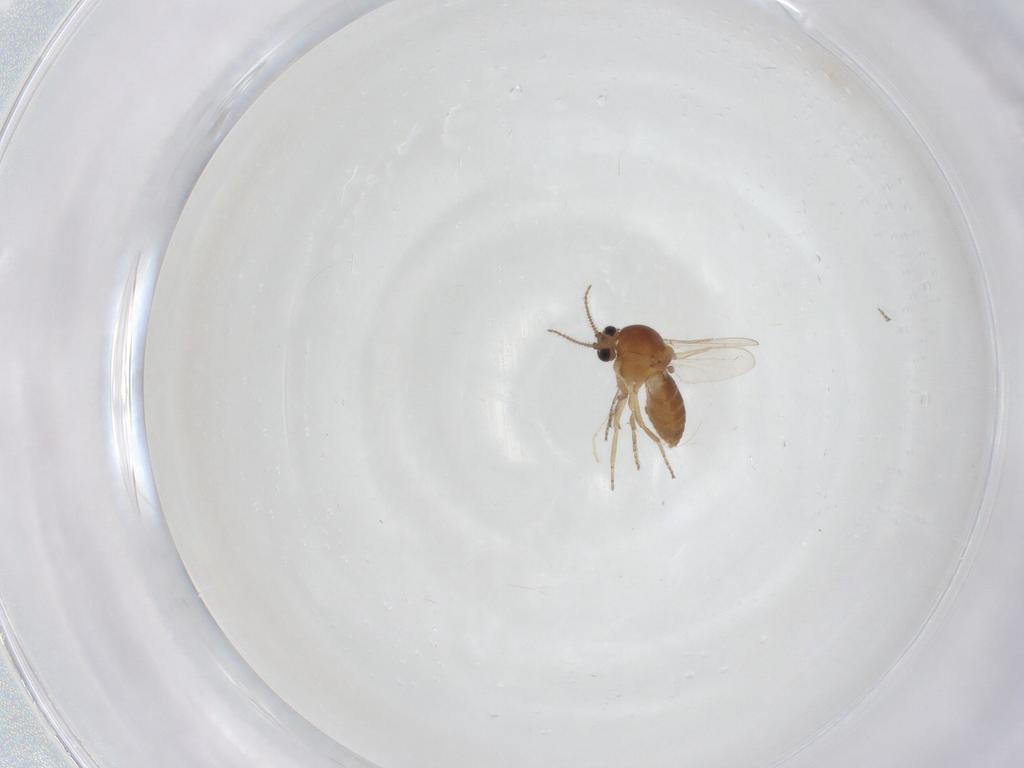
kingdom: Animalia
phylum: Arthropoda
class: Insecta
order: Diptera
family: Ceratopogonidae
